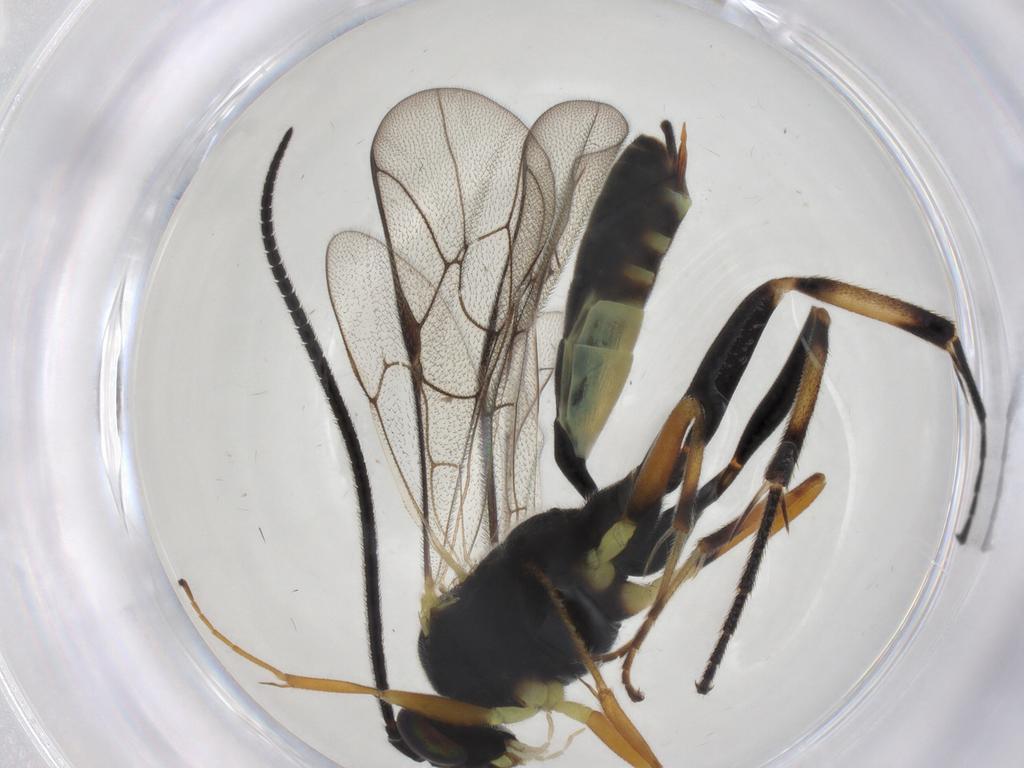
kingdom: Animalia
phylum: Arthropoda
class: Insecta
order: Hymenoptera
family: Ichneumonidae
